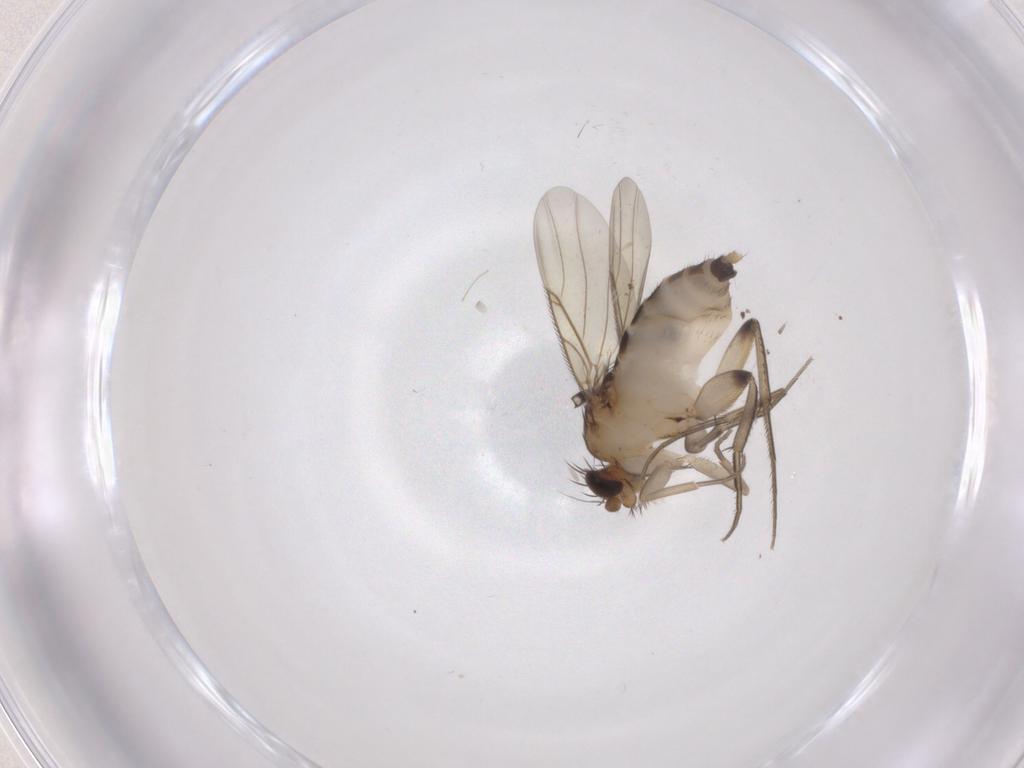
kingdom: Animalia
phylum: Arthropoda
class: Insecta
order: Diptera
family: Phoridae
